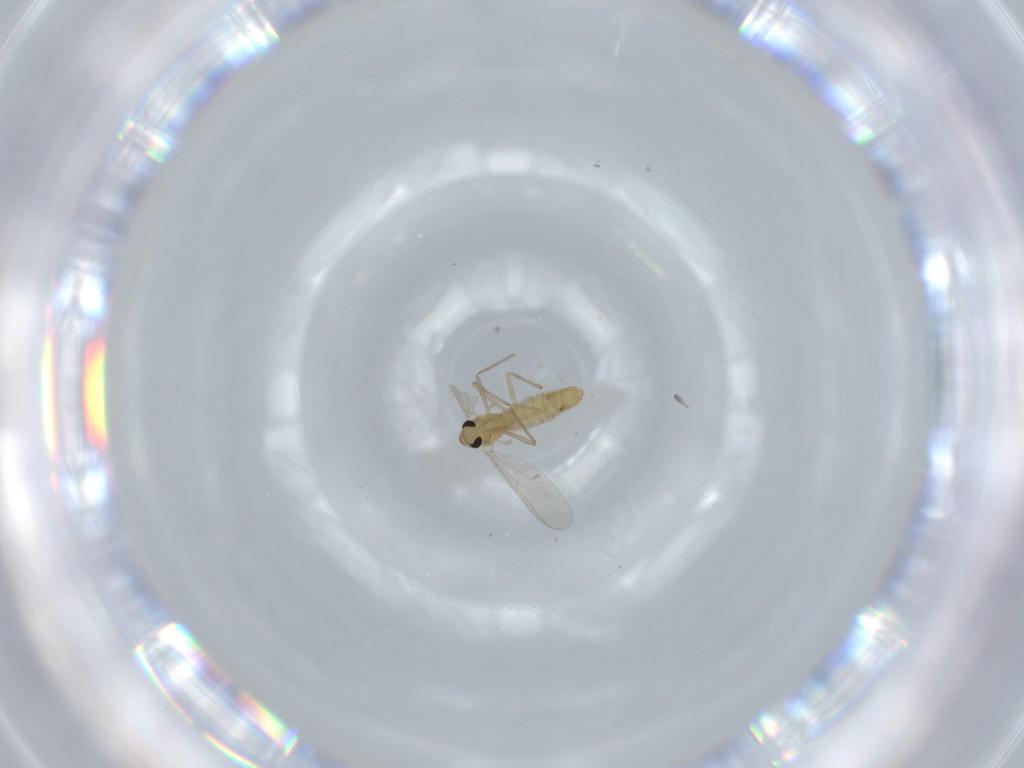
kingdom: Animalia
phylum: Arthropoda
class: Insecta
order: Diptera
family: Chironomidae
